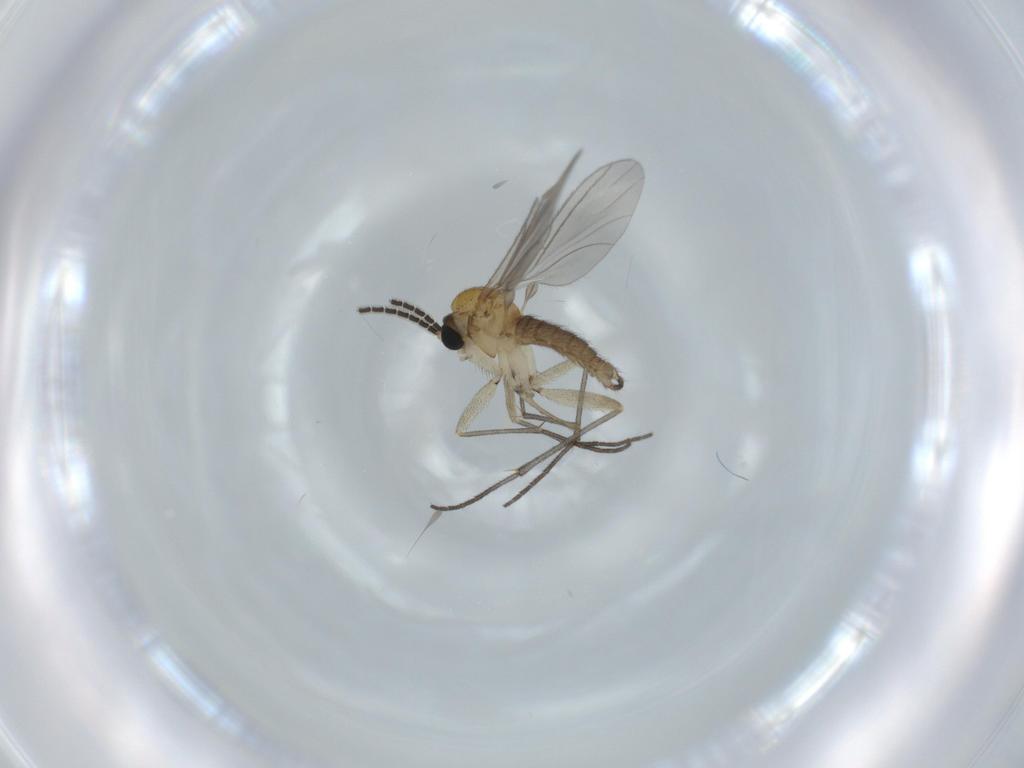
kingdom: Animalia
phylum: Arthropoda
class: Insecta
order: Diptera
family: Sciaridae
